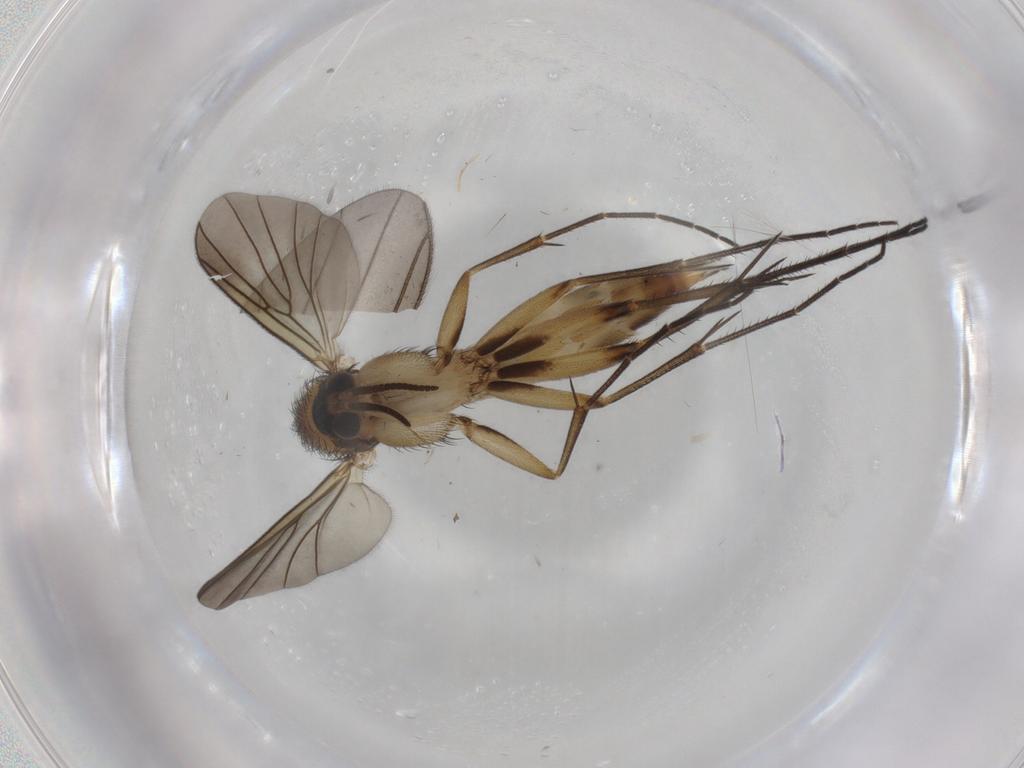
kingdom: Animalia
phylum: Arthropoda
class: Insecta
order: Diptera
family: Mycetophilidae
